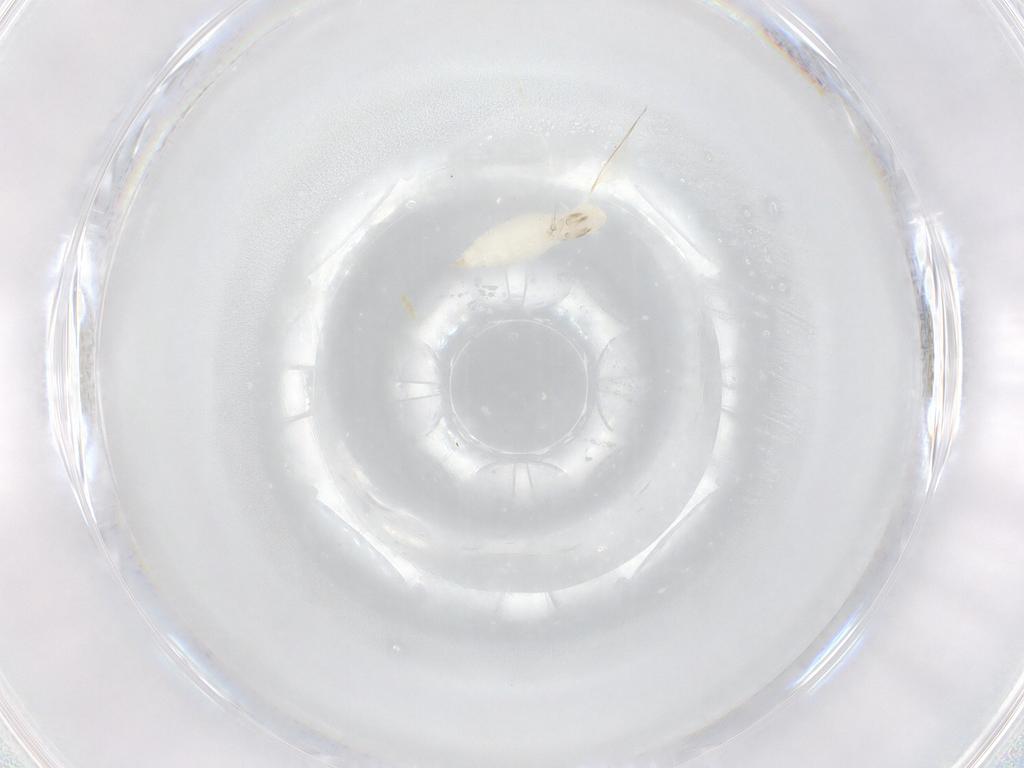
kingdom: Animalia
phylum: Arthropoda
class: Insecta
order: Diptera
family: Cecidomyiidae
